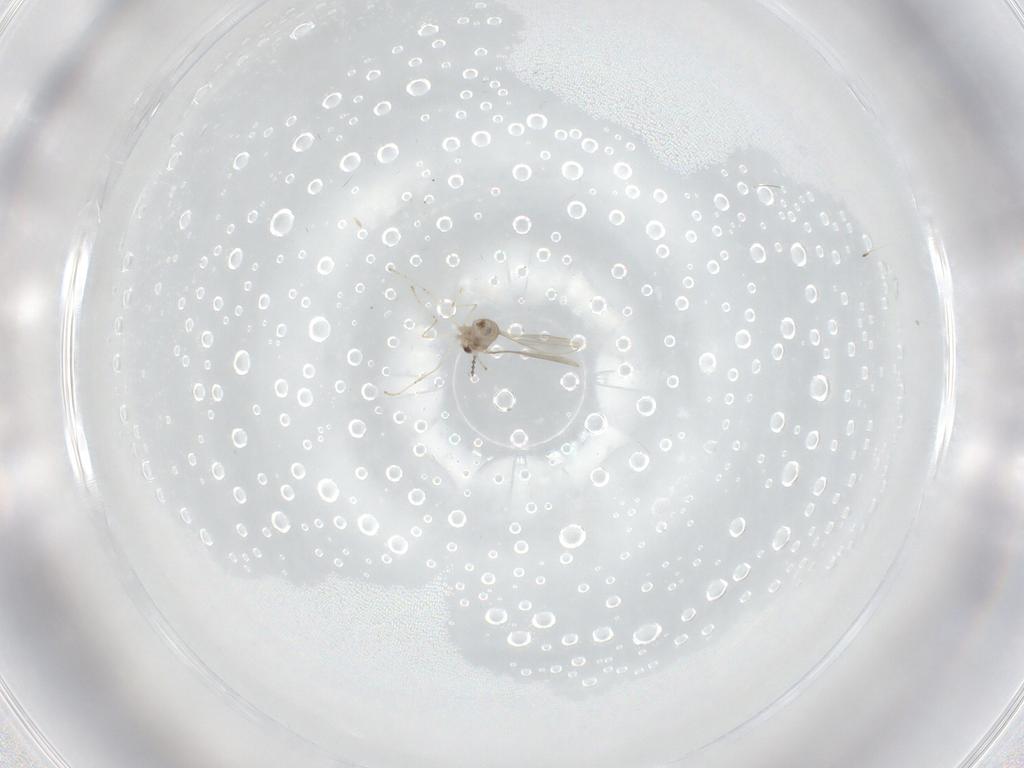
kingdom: Animalia
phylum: Arthropoda
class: Insecta
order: Diptera
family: Cecidomyiidae
